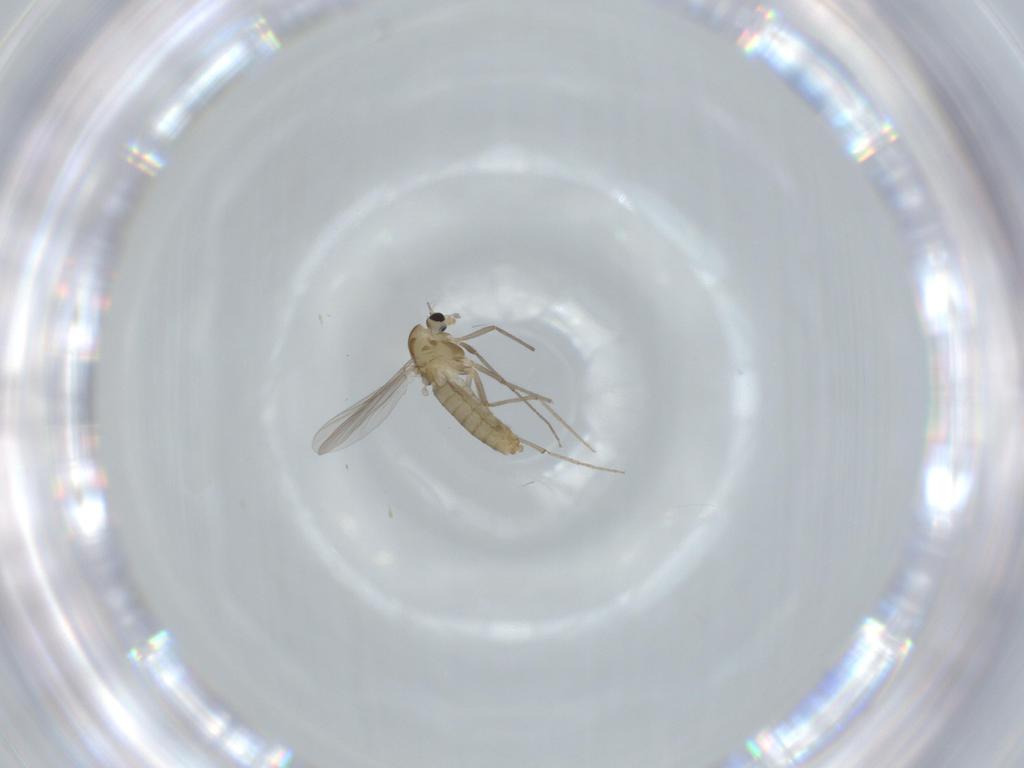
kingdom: Animalia
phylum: Arthropoda
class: Insecta
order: Diptera
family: Chironomidae
